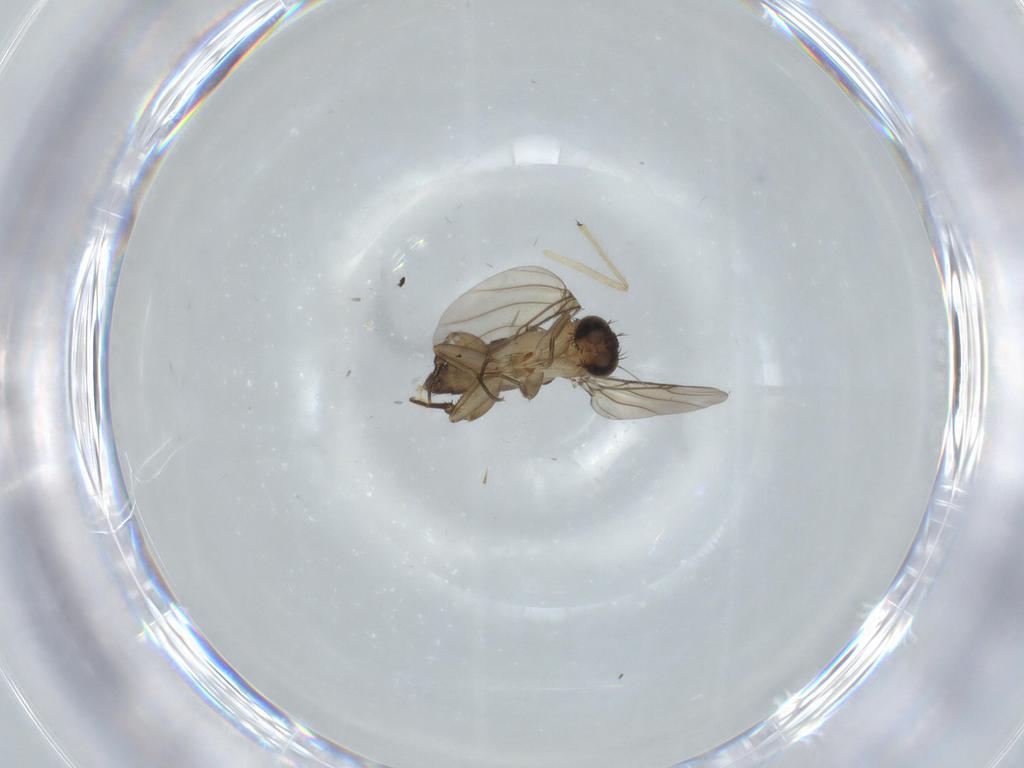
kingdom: Animalia
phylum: Arthropoda
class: Insecta
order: Diptera
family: Phoridae
